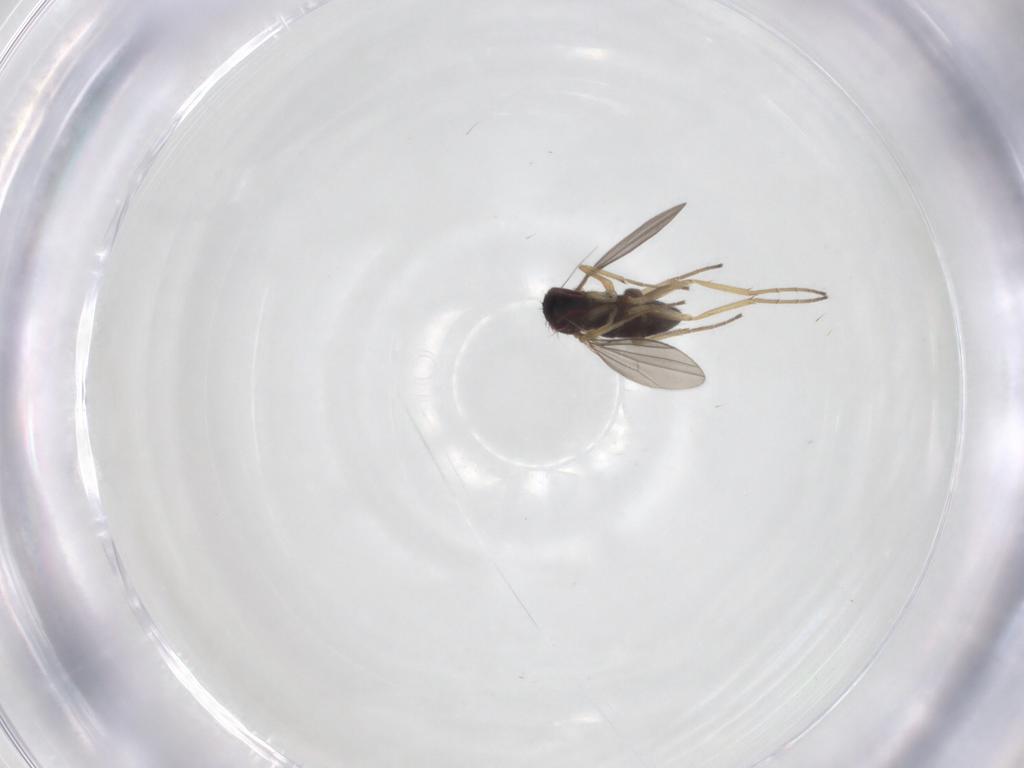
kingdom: Animalia
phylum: Arthropoda
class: Insecta
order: Diptera
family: Dolichopodidae
